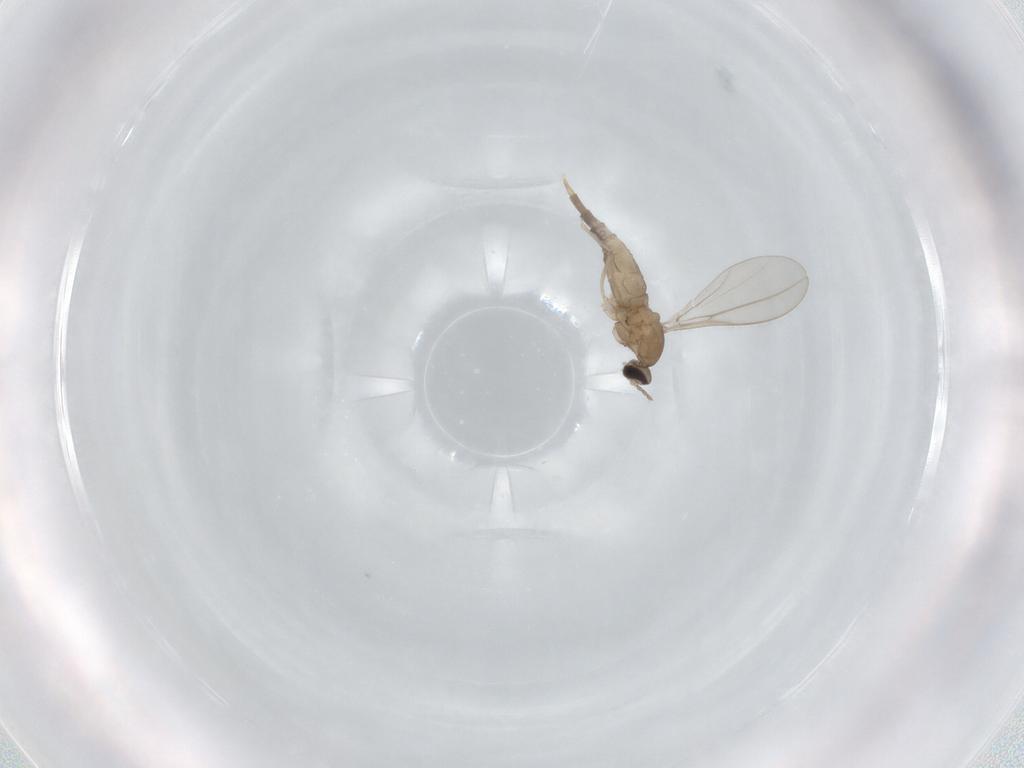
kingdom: Animalia
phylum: Arthropoda
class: Insecta
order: Diptera
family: Cecidomyiidae
